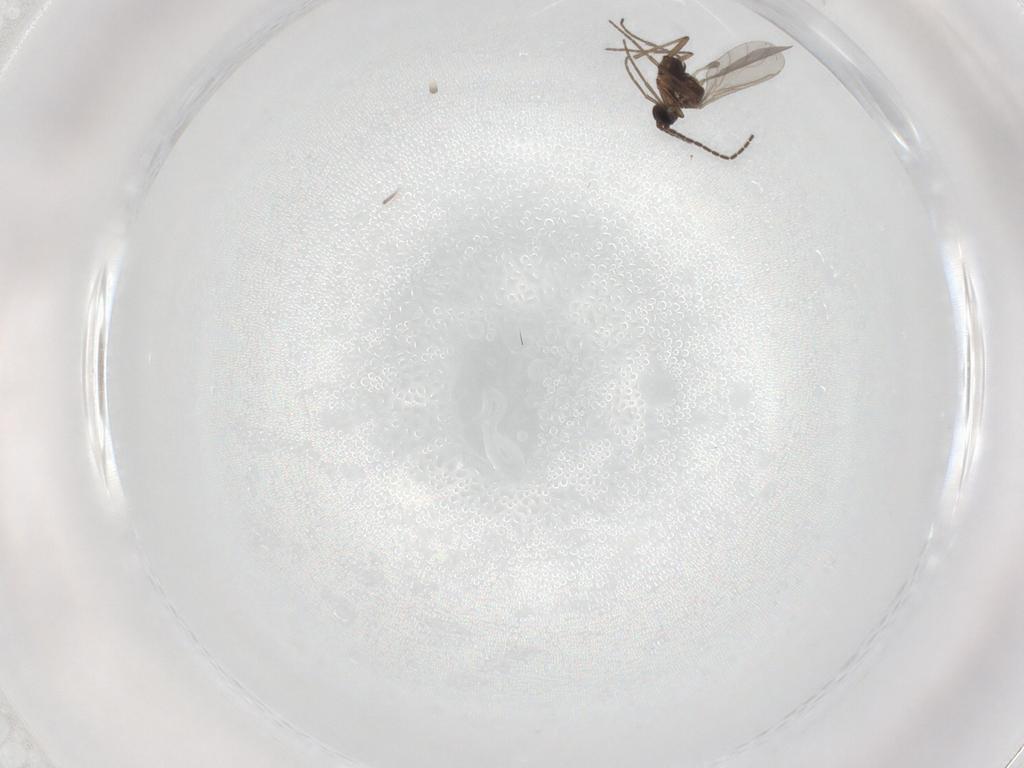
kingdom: Animalia
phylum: Arthropoda
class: Insecta
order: Diptera
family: Sciaridae
